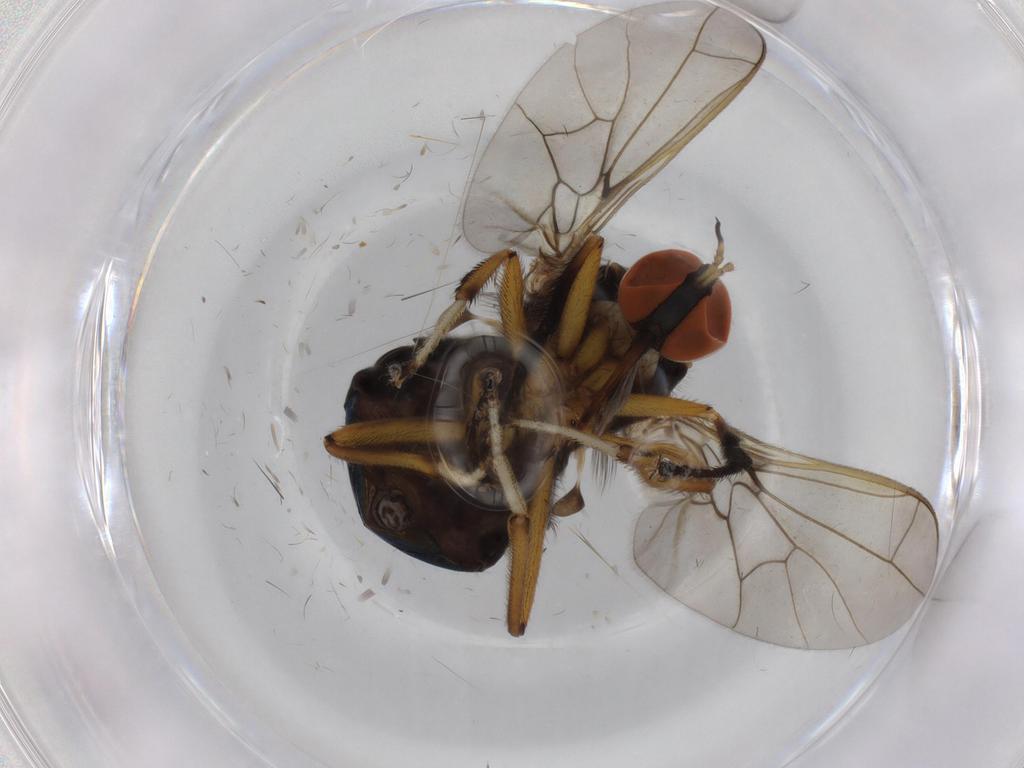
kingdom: Animalia
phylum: Arthropoda
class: Insecta
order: Diptera
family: Empididae
